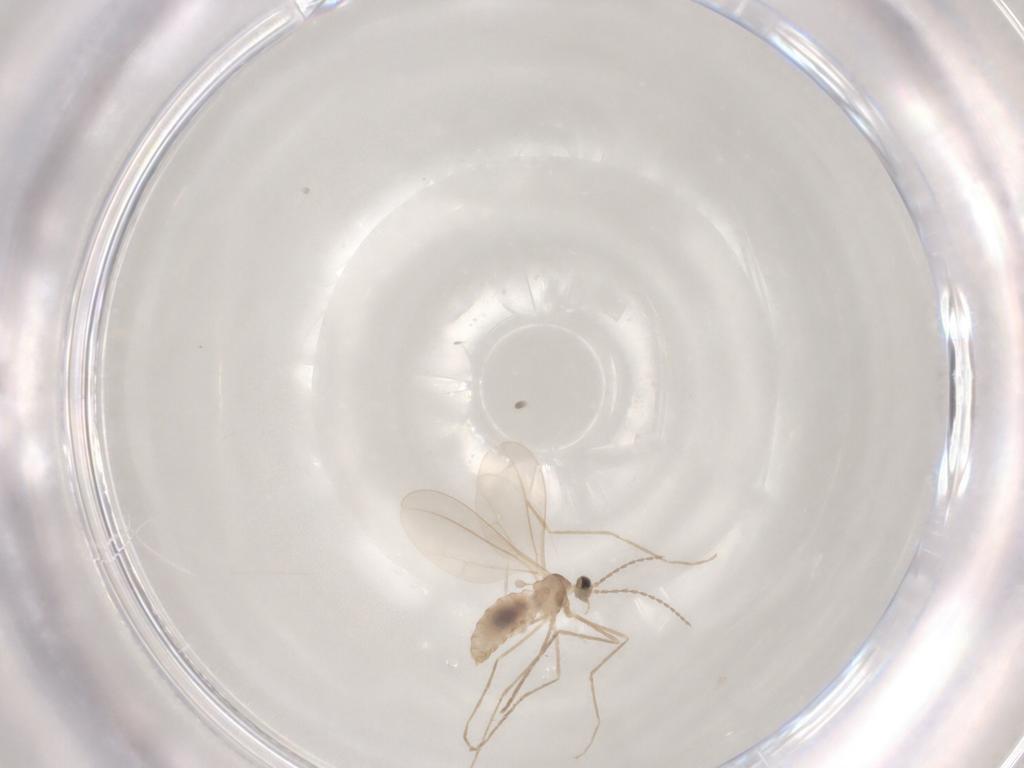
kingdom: Animalia
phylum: Arthropoda
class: Insecta
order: Diptera
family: Cecidomyiidae
